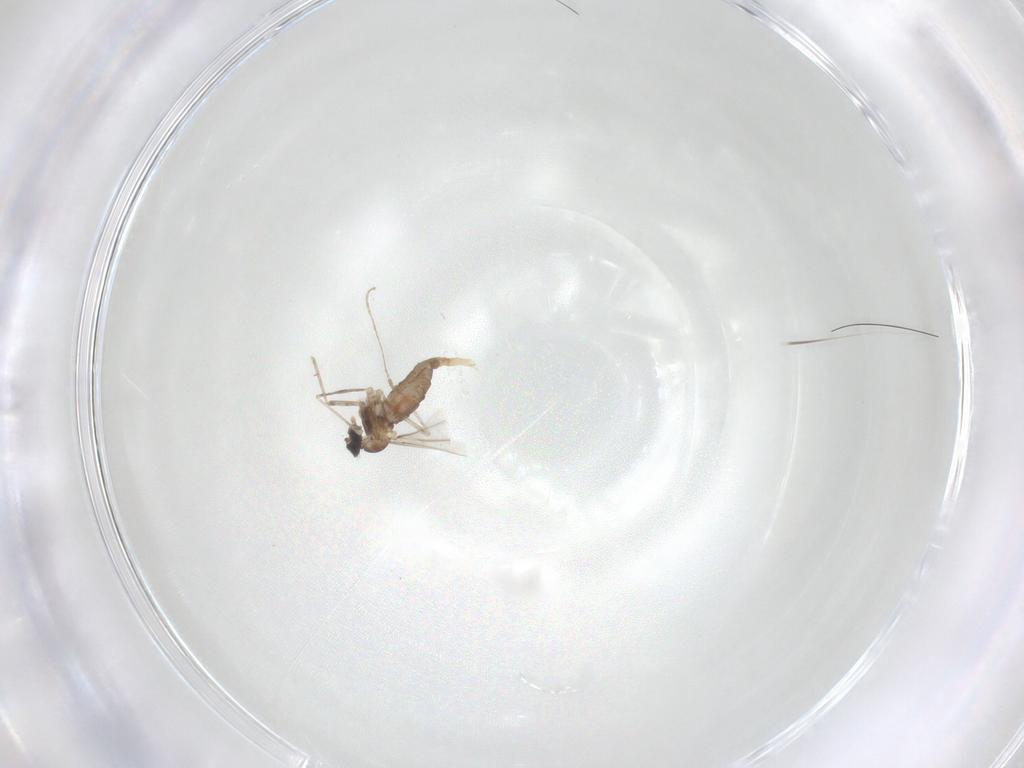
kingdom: Animalia
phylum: Arthropoda
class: Insecta
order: Diptera
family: Cecidomyiidae
